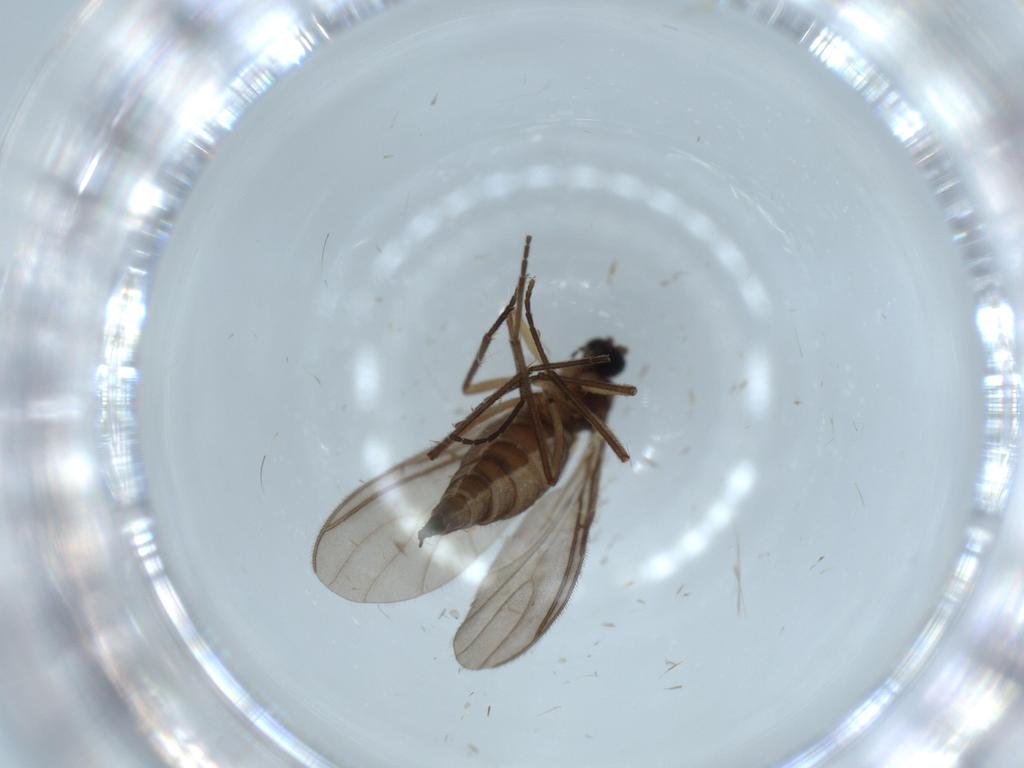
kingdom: Animalia
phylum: Arthropoda
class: Insecta
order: Diptera
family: Sciaridae
